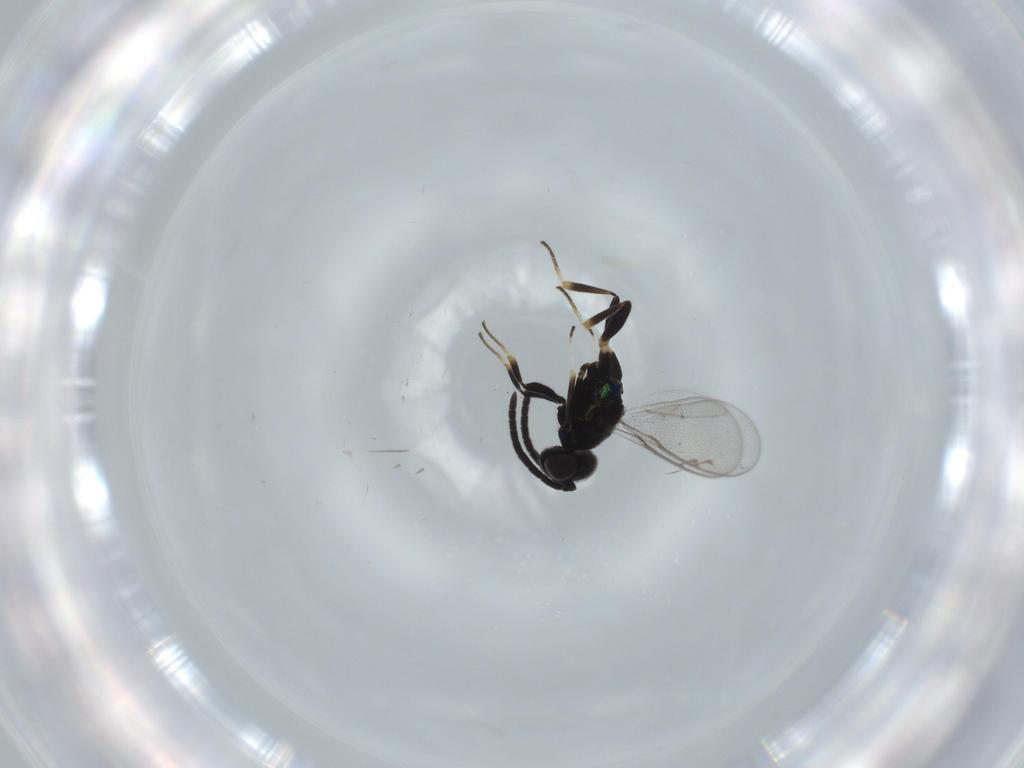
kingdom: Animalia
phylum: Arthropoda
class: Insecta
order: Hymenoptera
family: Eupelmidae
